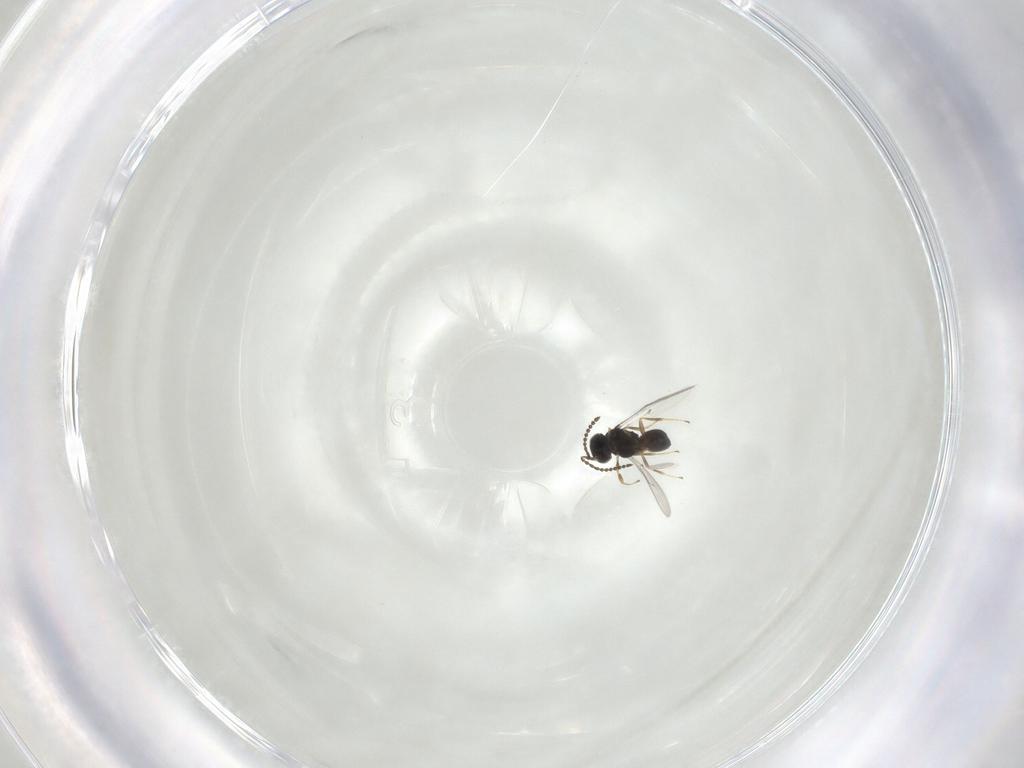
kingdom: Animalia
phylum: Arthropoda
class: Insecta
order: Hymenoptera
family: Scelionidae
